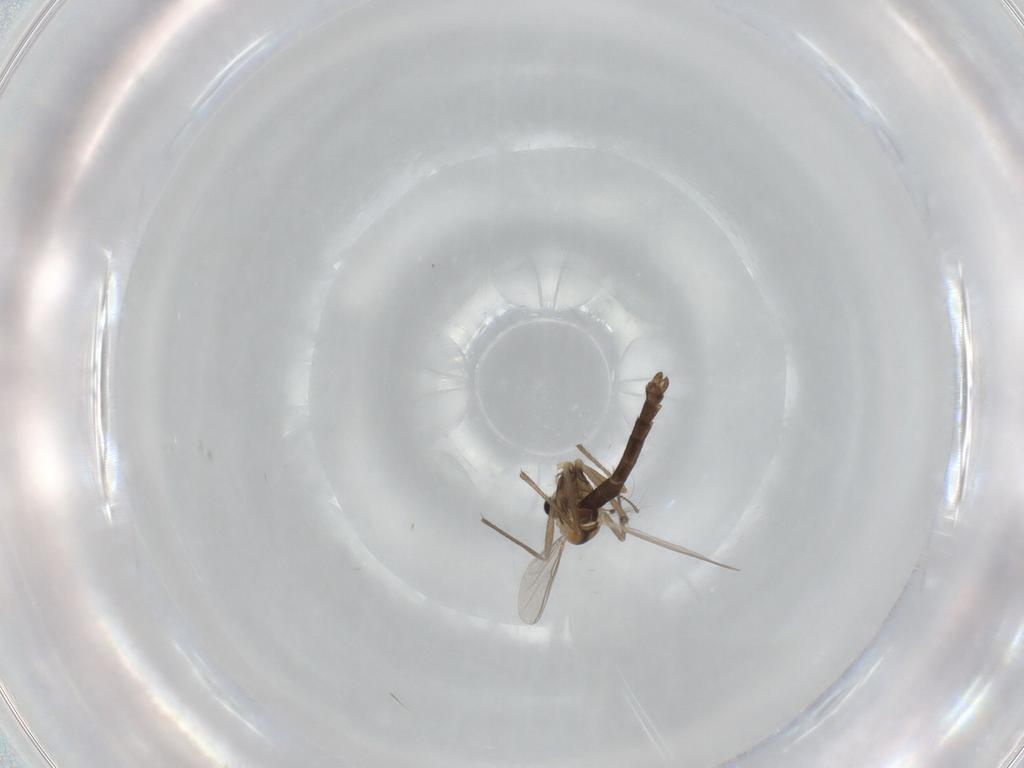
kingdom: Animalia
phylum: Arthropoda
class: Insecta
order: Diptera
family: Chironomidae
